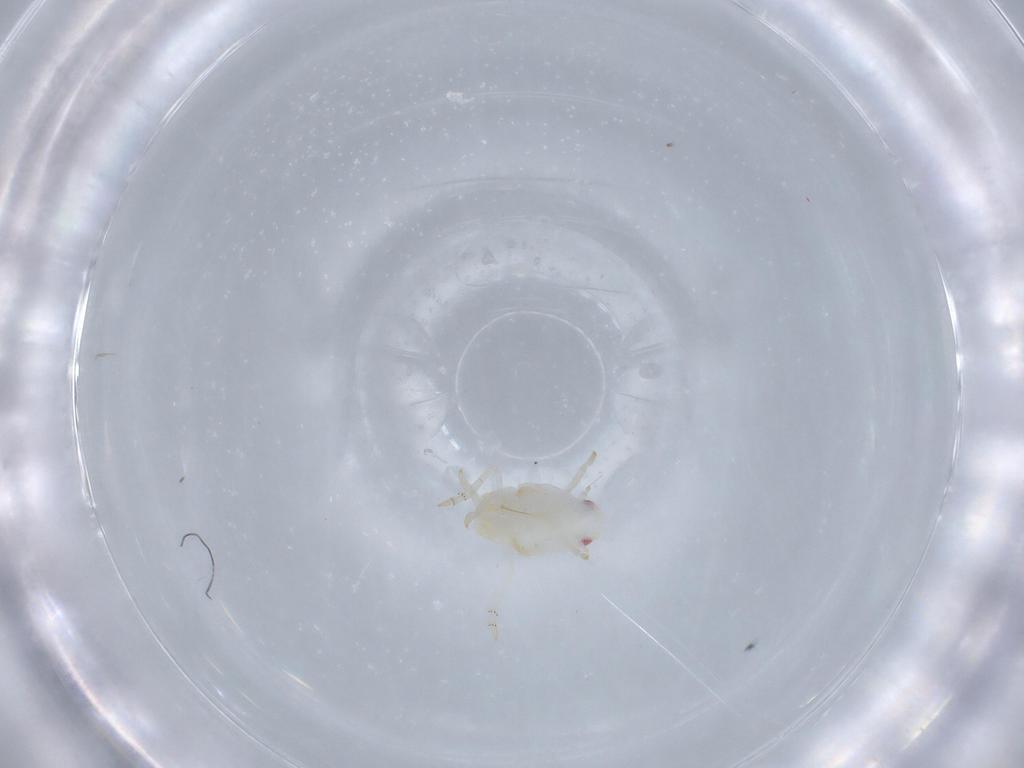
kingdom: Animalia
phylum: Arthropoda
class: Insecta
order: Hemiptera
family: Flatidae
